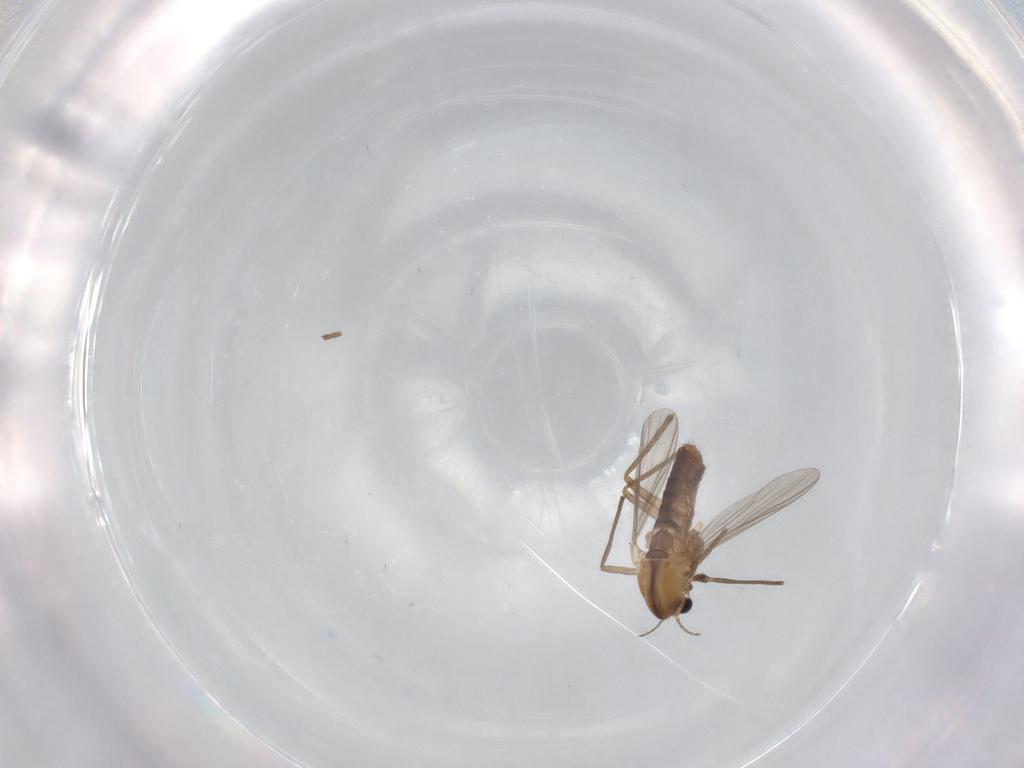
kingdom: Animalia
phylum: Arthropoda
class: Insecta
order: Diptera
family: Chironomidae
